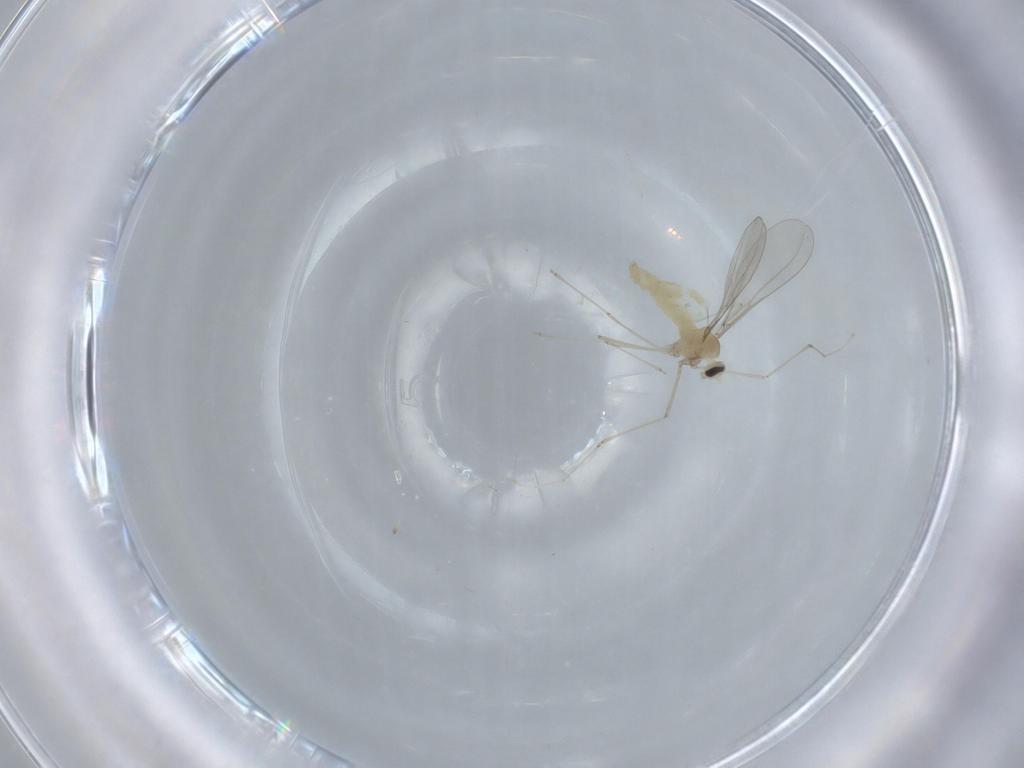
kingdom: Animalia
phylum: Arthropoda
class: Insecta
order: Diptera
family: Cecidomyiidae
